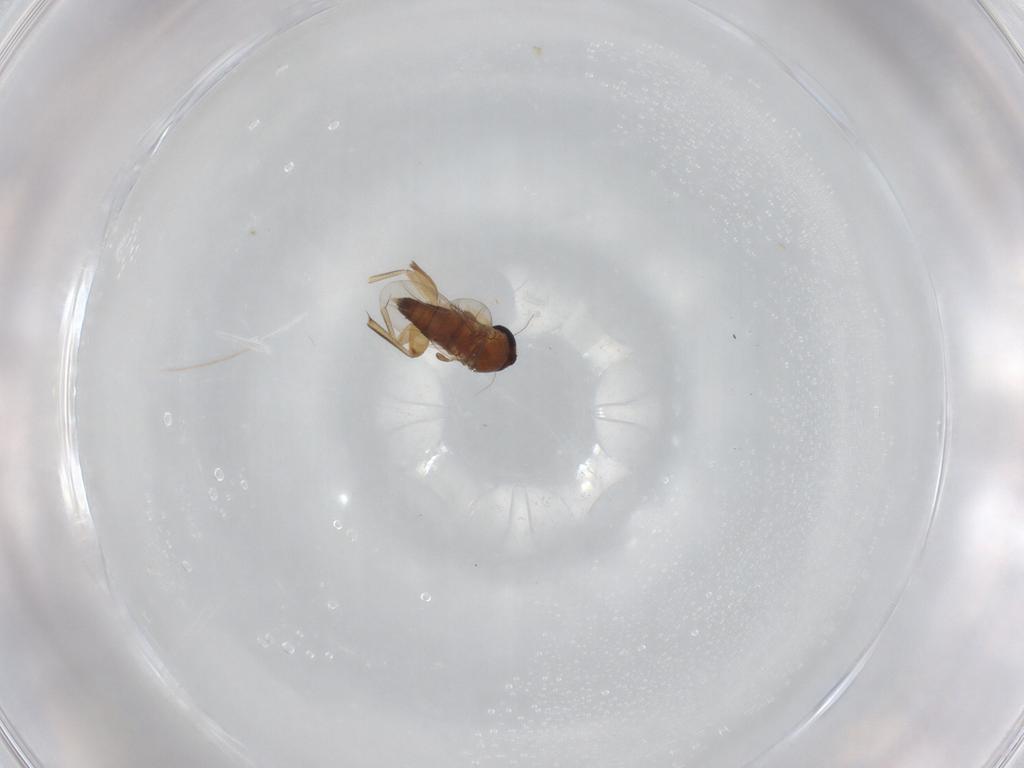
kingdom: Animalia
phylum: Arthropoda
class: Insecta
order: Diptera
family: Phoridae
